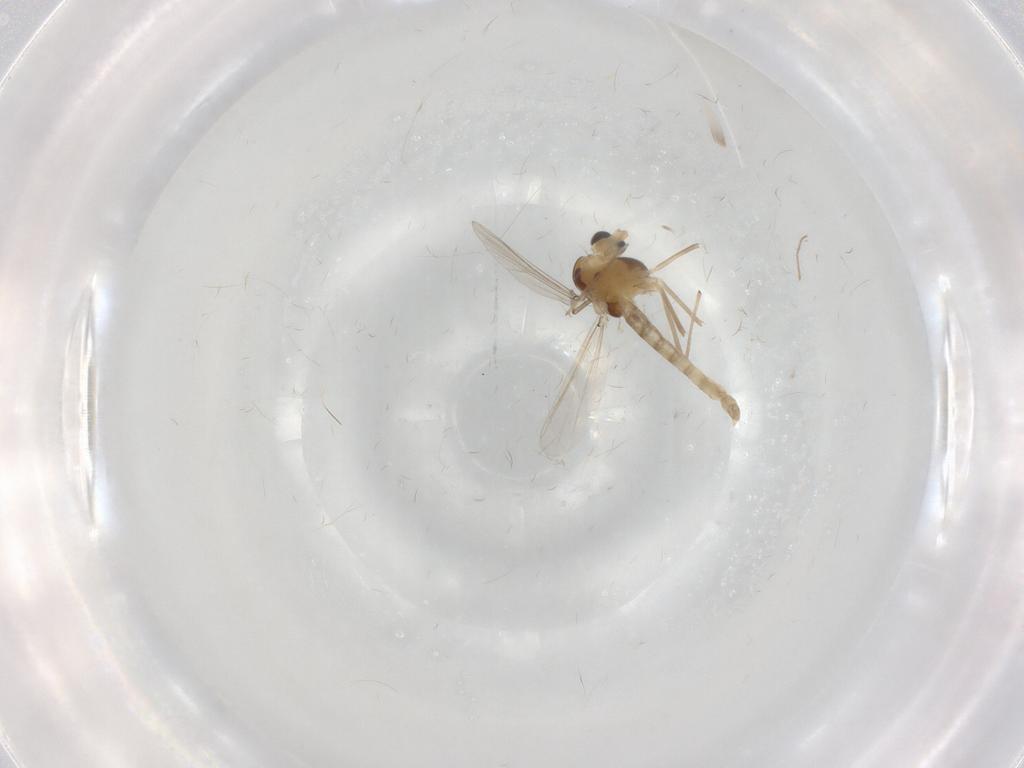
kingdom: Animalia
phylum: Arthropoda
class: Insecta
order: Diptera
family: Chironomidae
